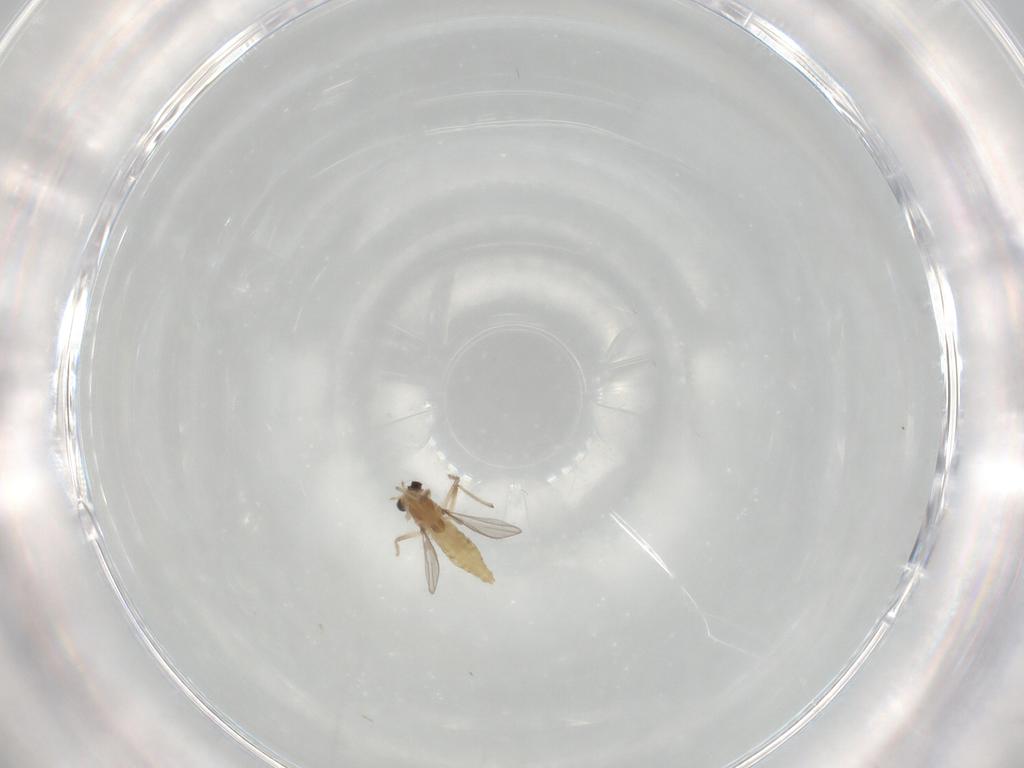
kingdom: Animalia
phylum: Arthropoda
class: Insecta
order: Diptera
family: Chironomidae
